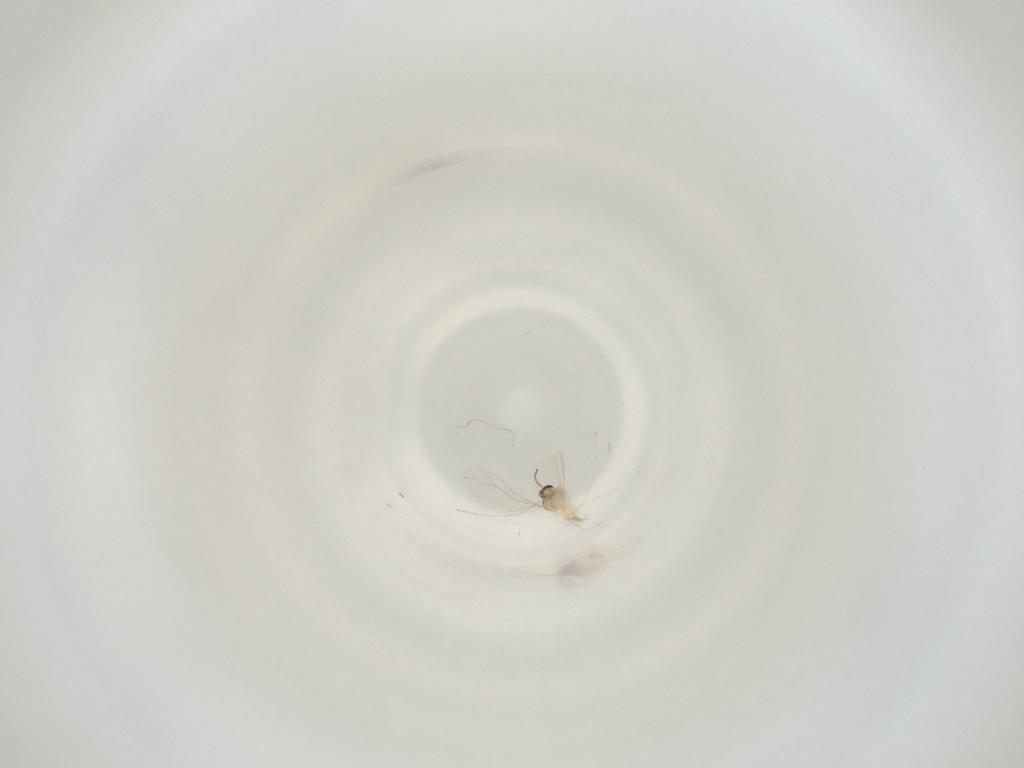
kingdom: Animalia
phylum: Arthropoda
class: Insecta
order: Diptera
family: Cecidomyiidae
